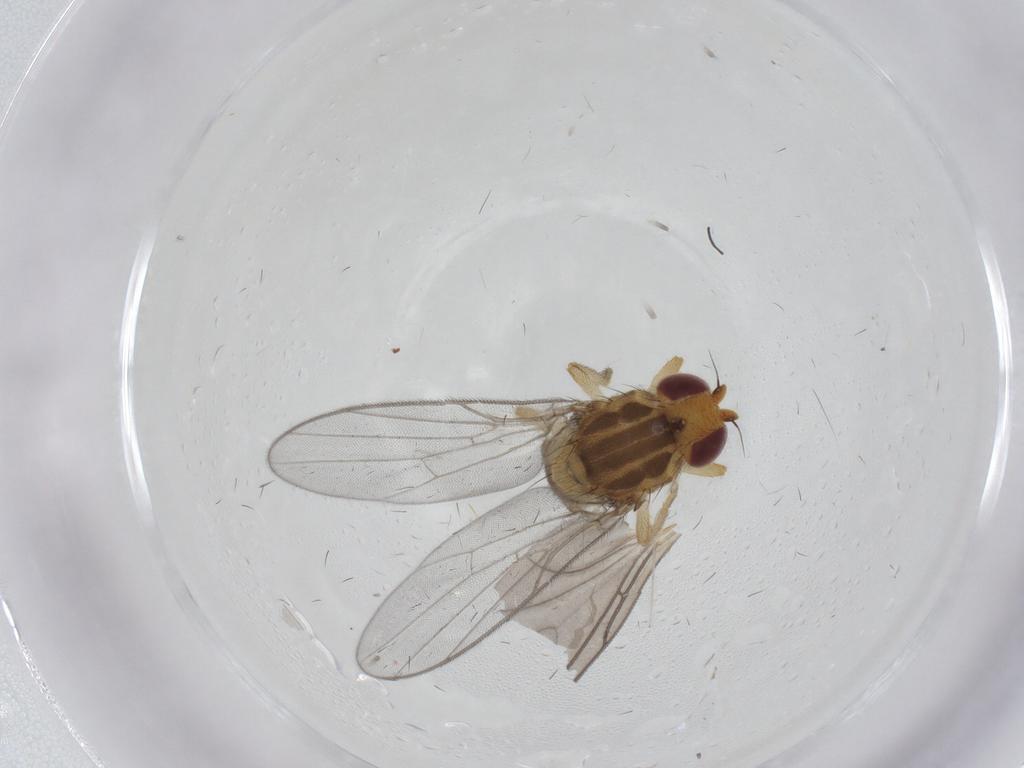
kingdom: Animalia
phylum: Arthropoda
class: Insecta
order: Diptera
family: Chloropidae
